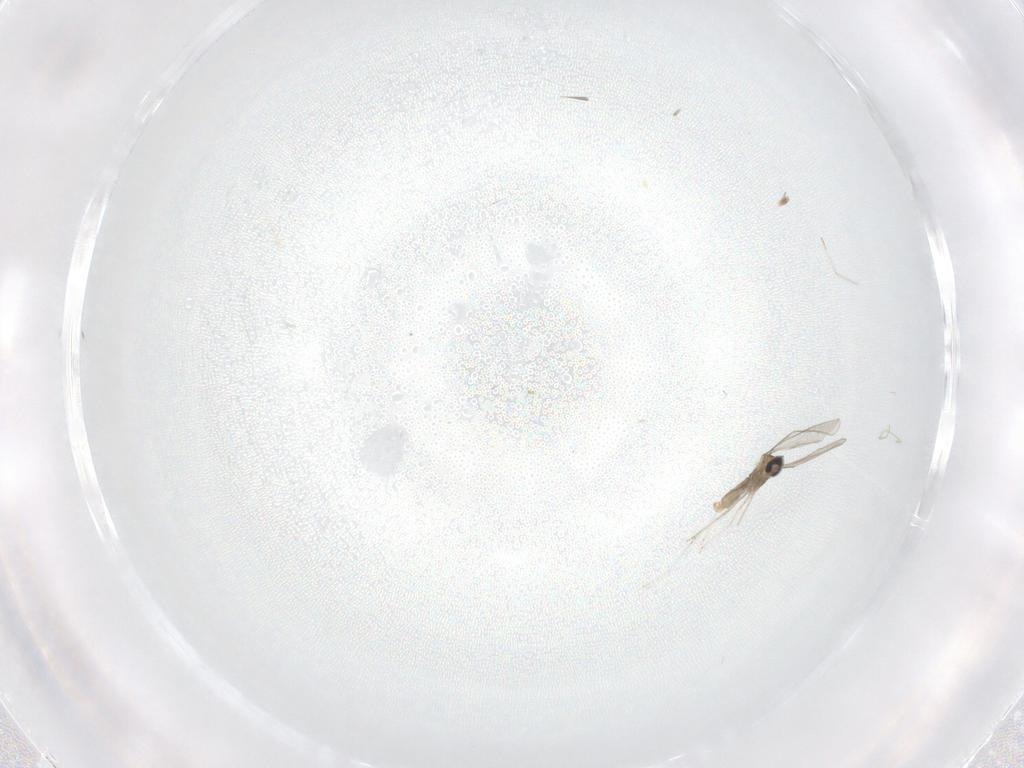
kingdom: Animalia
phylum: Arthropoda
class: Insecta
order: Diptera
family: Cecidomyiidae
